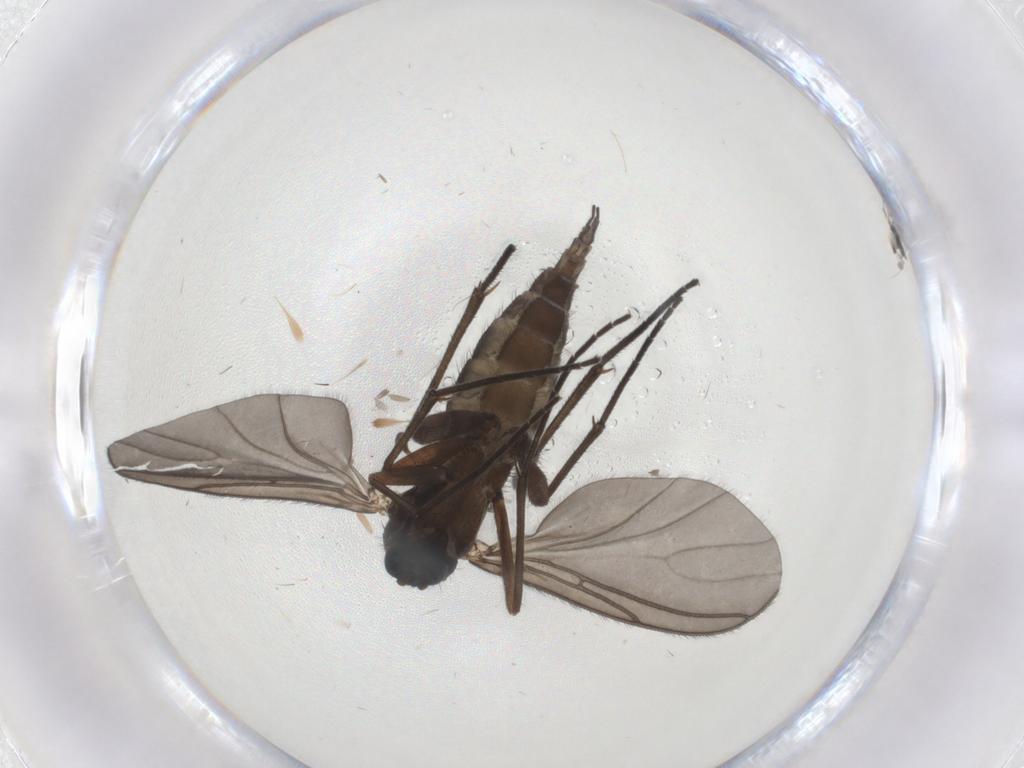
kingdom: Animalia
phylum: Arthropoda
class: Insecta
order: Diptera
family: Sciaridae
